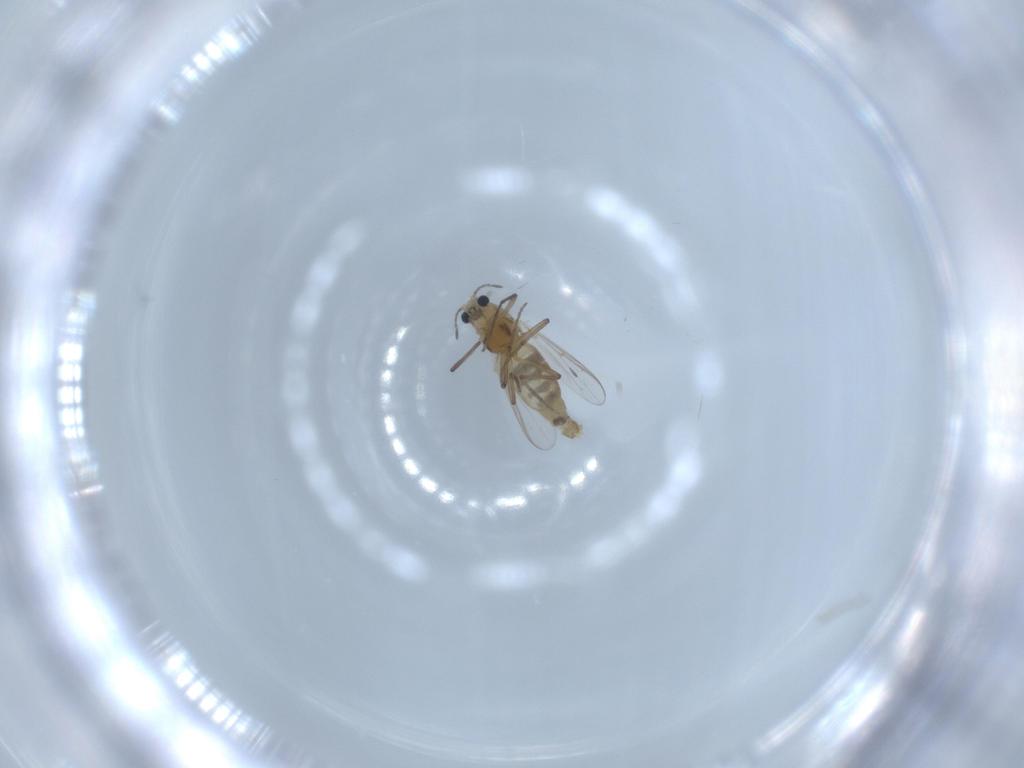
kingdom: Animalia
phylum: Arthropoda
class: Insecta
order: Diptera
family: Chironomidae
